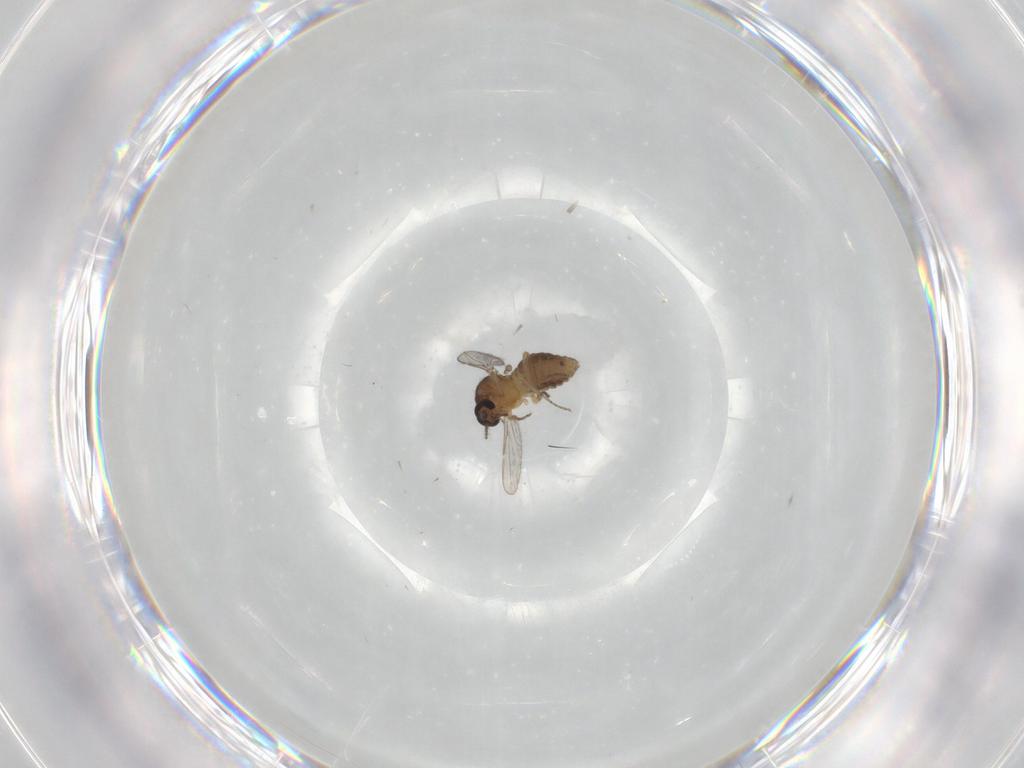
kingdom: Animalia
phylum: Arthropoda
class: Insecta
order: Diptera
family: Ceratopogonidae
